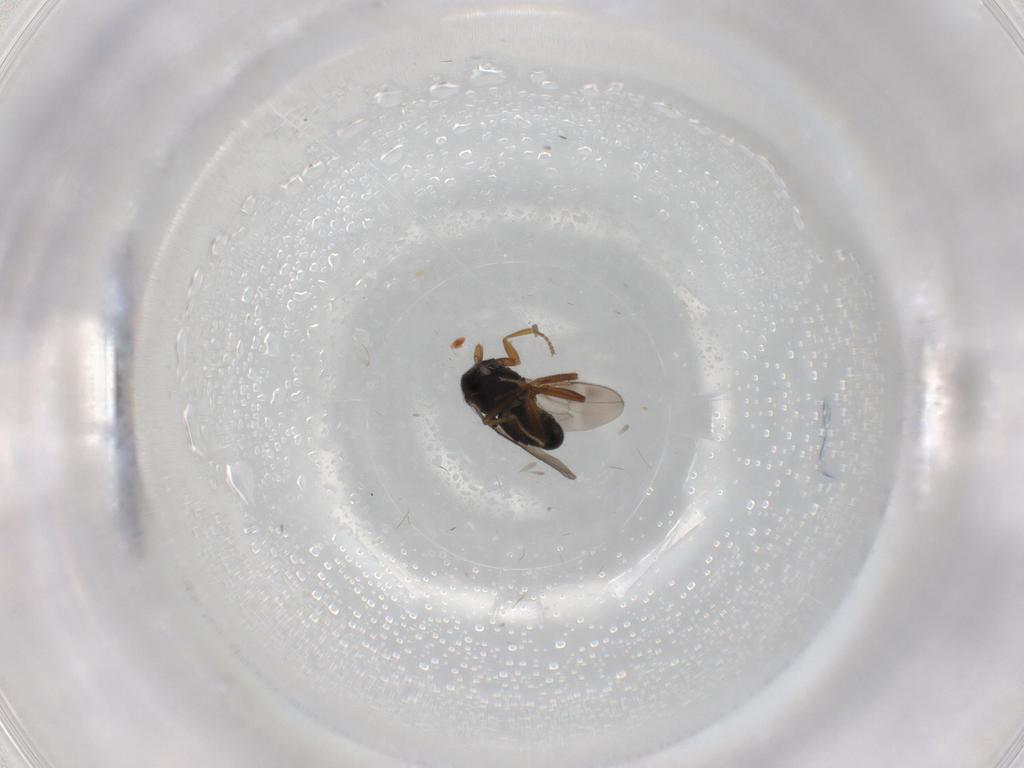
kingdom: Animalia
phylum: Arthropoda
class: Insecta
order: Diptera
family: Sphaeroceridae
